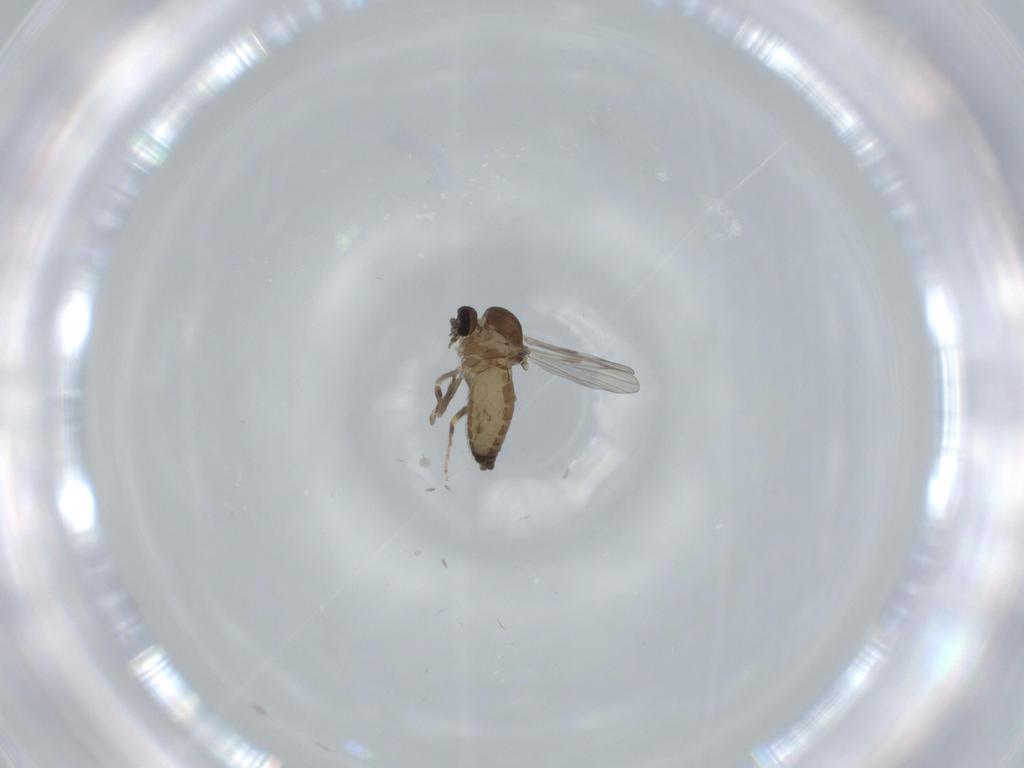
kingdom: Animalia
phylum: Arthropoda
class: Insecta
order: Diptera
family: Ceratopogonidae
